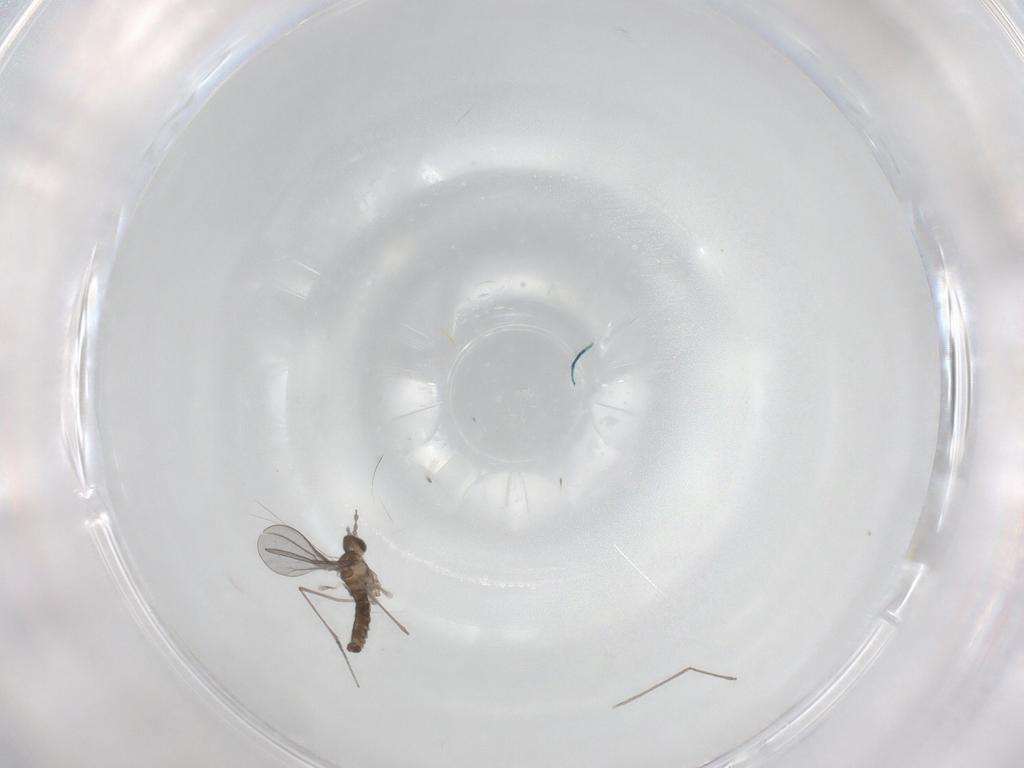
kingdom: Animalia
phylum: Arthropoda
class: Insecta
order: Diptera
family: Cecidomyiidae
